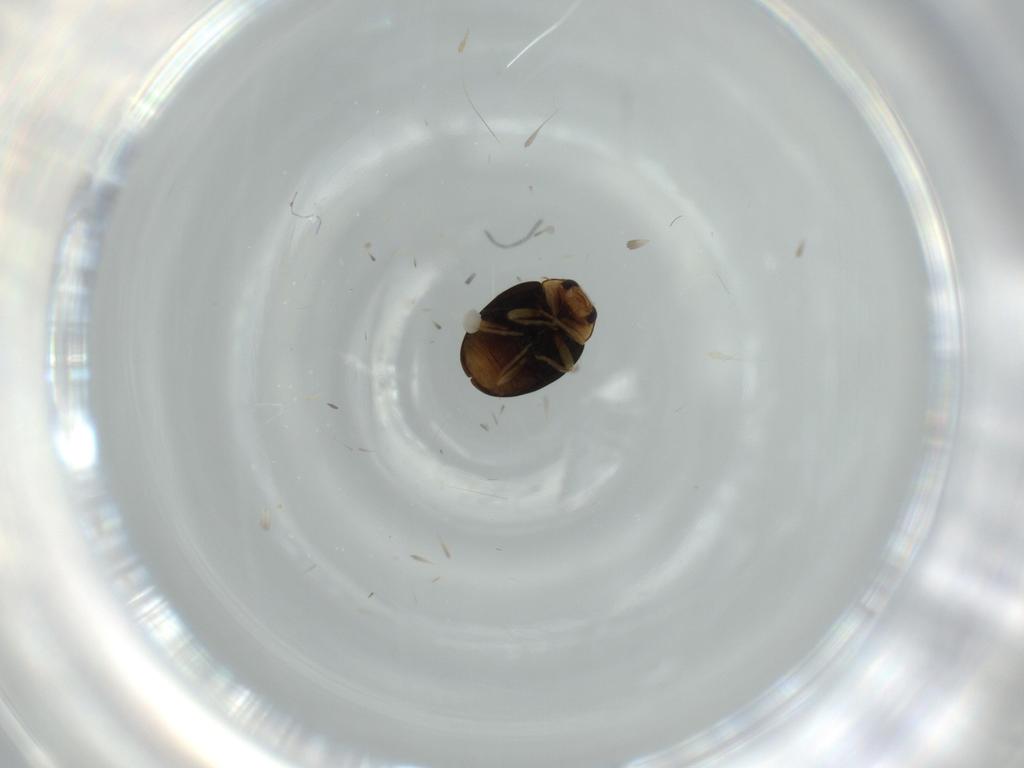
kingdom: Animalia
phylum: Arthropoda
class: Insecta
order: Coleoptera
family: Coccinellidae
